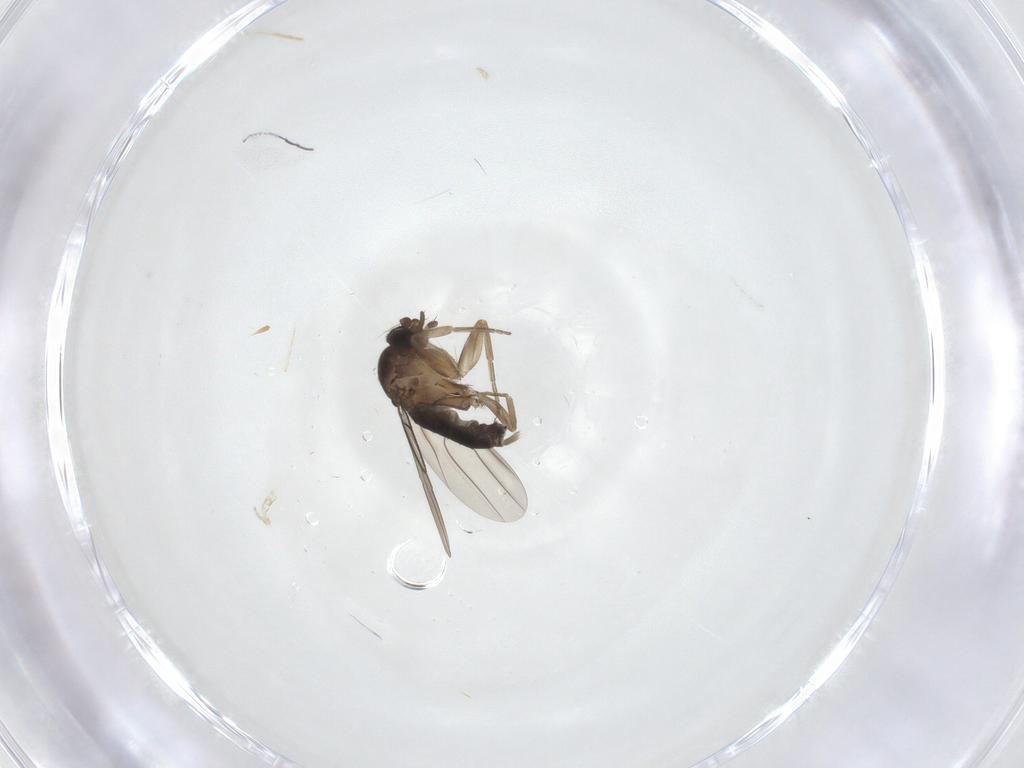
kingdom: Animalia
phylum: Arthropoda
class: Insecta
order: Diptera
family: Phoridae
